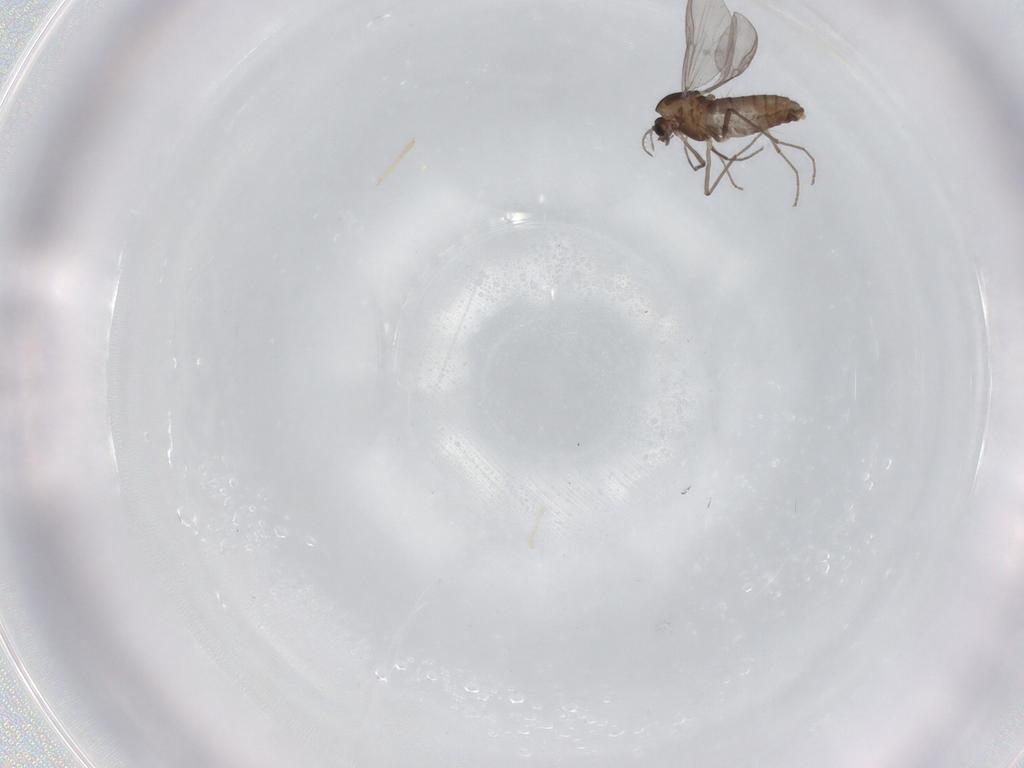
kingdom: Animalia
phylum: Arthropoda
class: Insecta
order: Diptera
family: Chironomidae
